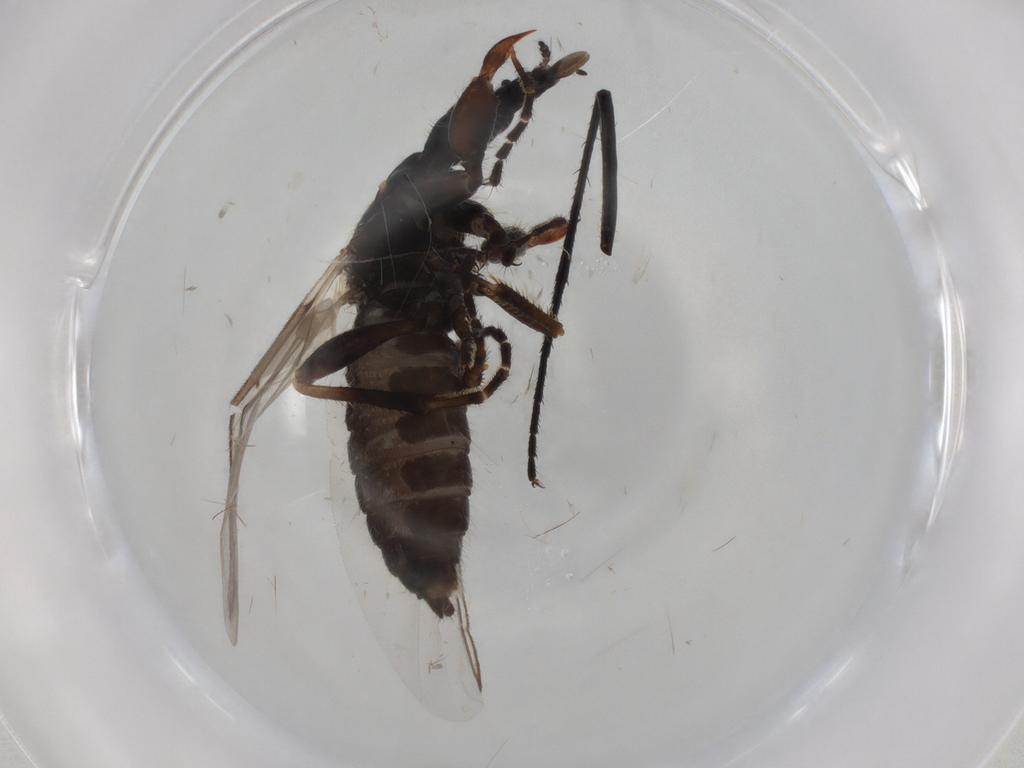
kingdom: Animalia
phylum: Arthropoda
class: Insecta
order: Diptera
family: Bibionidae
